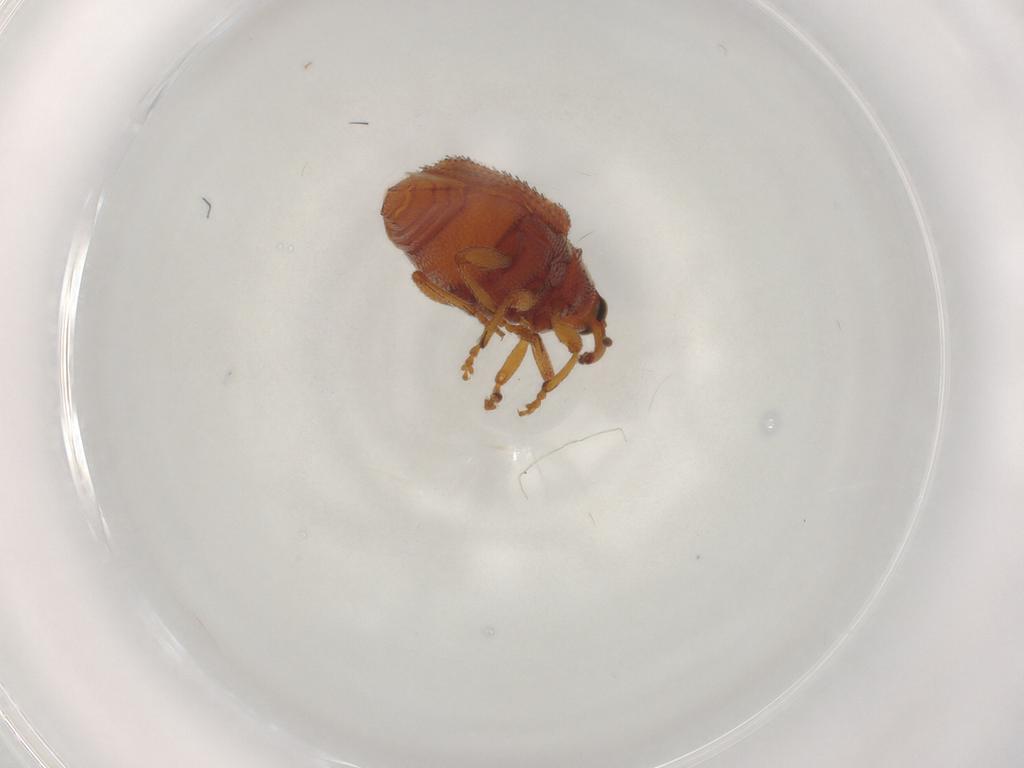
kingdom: Animalia
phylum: Arthropoda
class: Insecta
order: Coleoptera
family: Curculionidae
